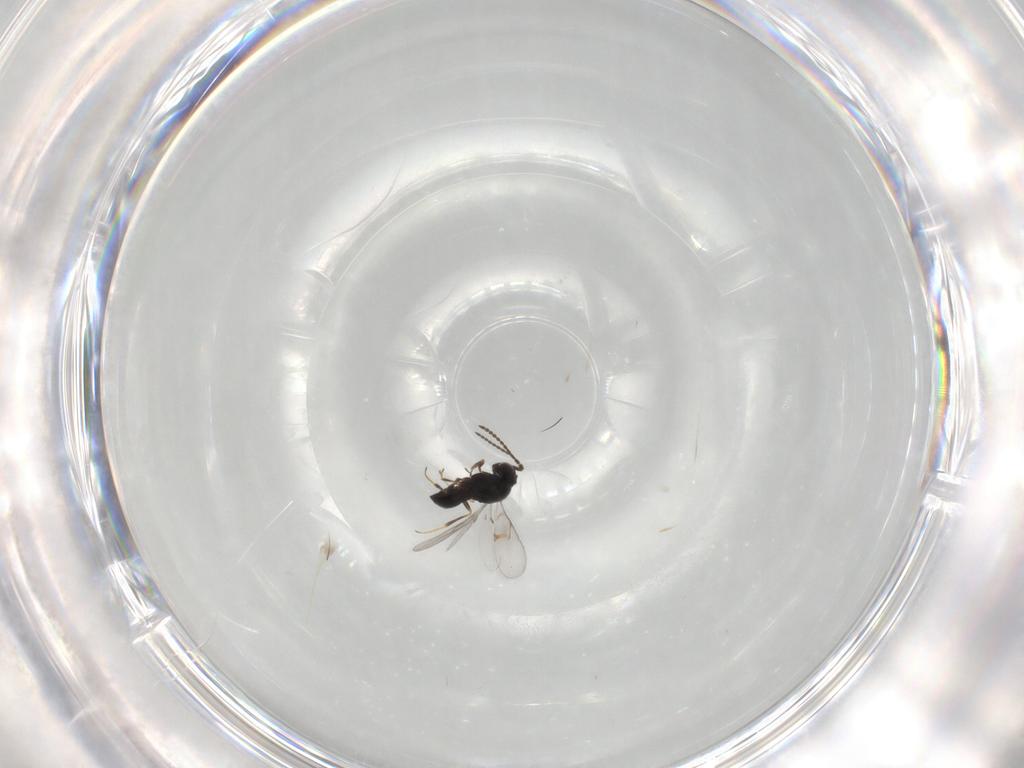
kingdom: Animalia
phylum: Arthropoda
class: Insecta
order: Hymenoptera
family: Scelionidae
